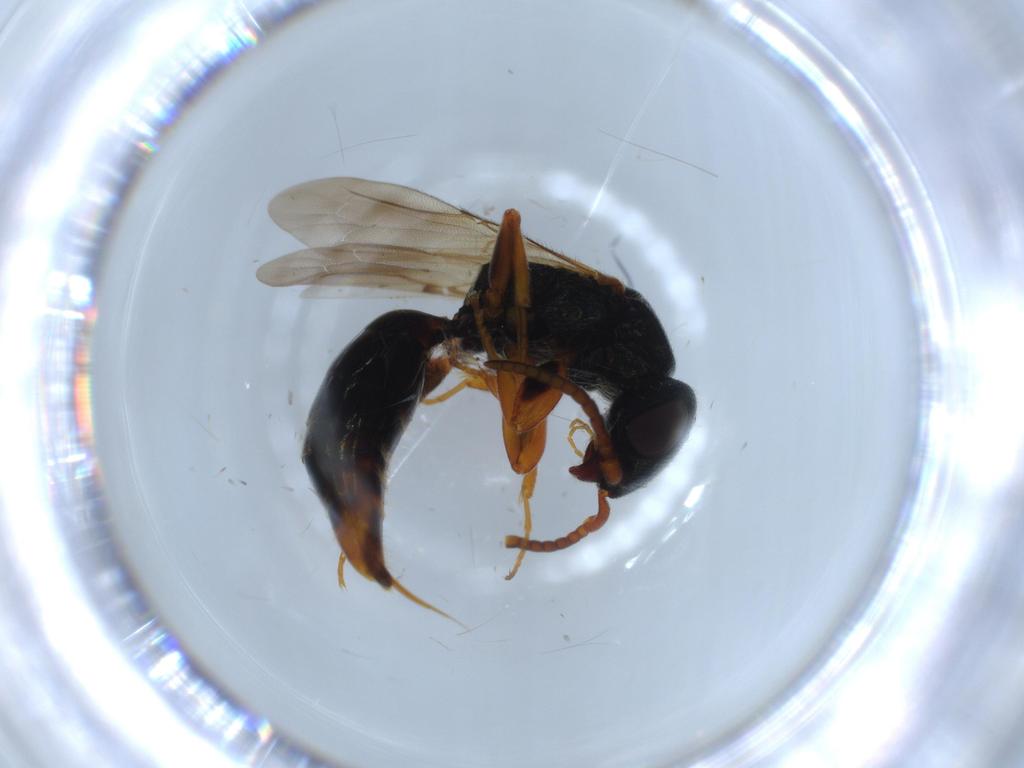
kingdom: Animalia
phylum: Arthropoda
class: Insecta
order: Hymenoptera
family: Bethylidae
